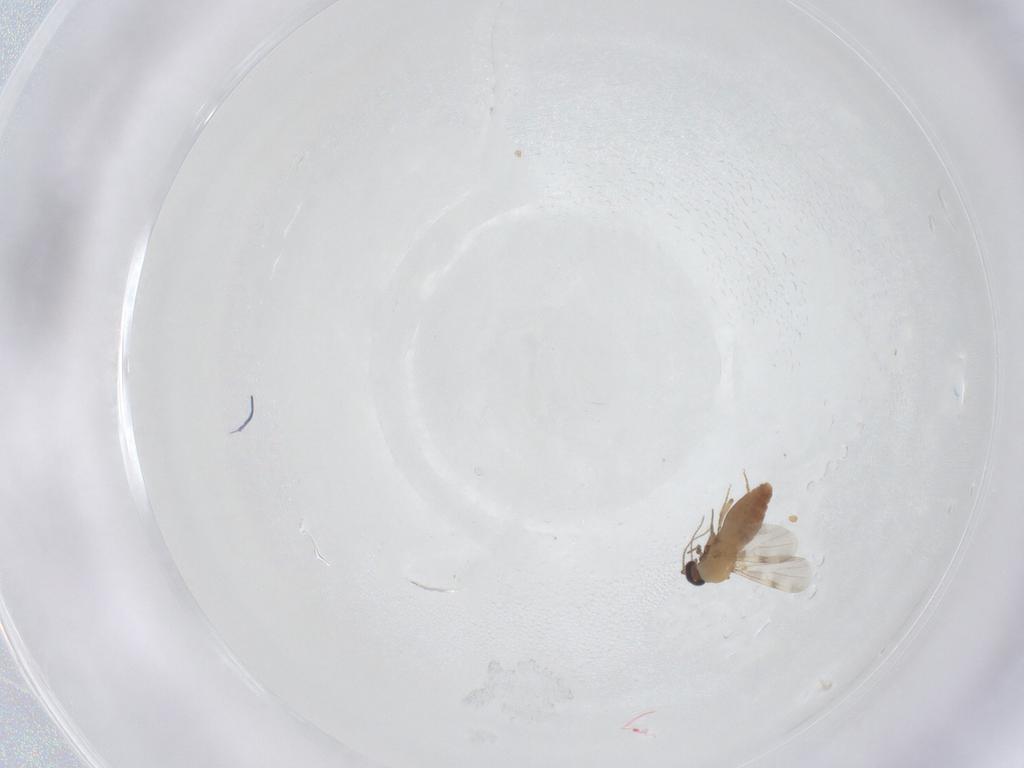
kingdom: Animalia
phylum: Arthropoda
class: Insecta
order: Diptera
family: Ceratopogonidae
